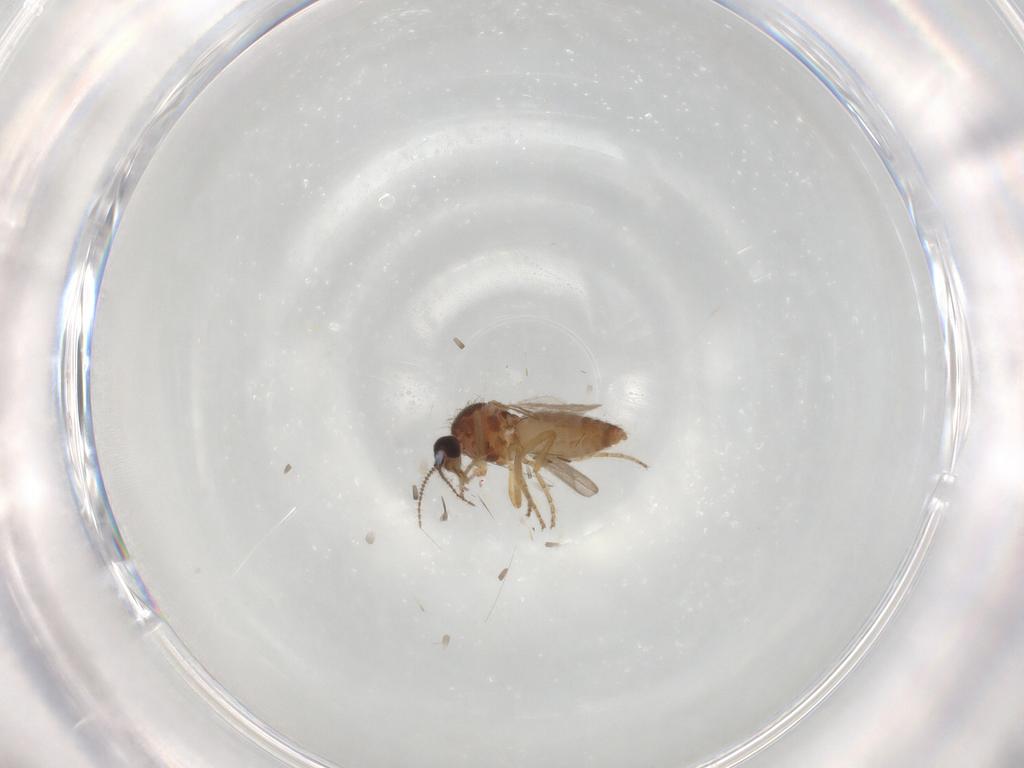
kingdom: Animalia
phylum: Arthropoda
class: Insecta
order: Diptera
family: Ceratopogonidae
